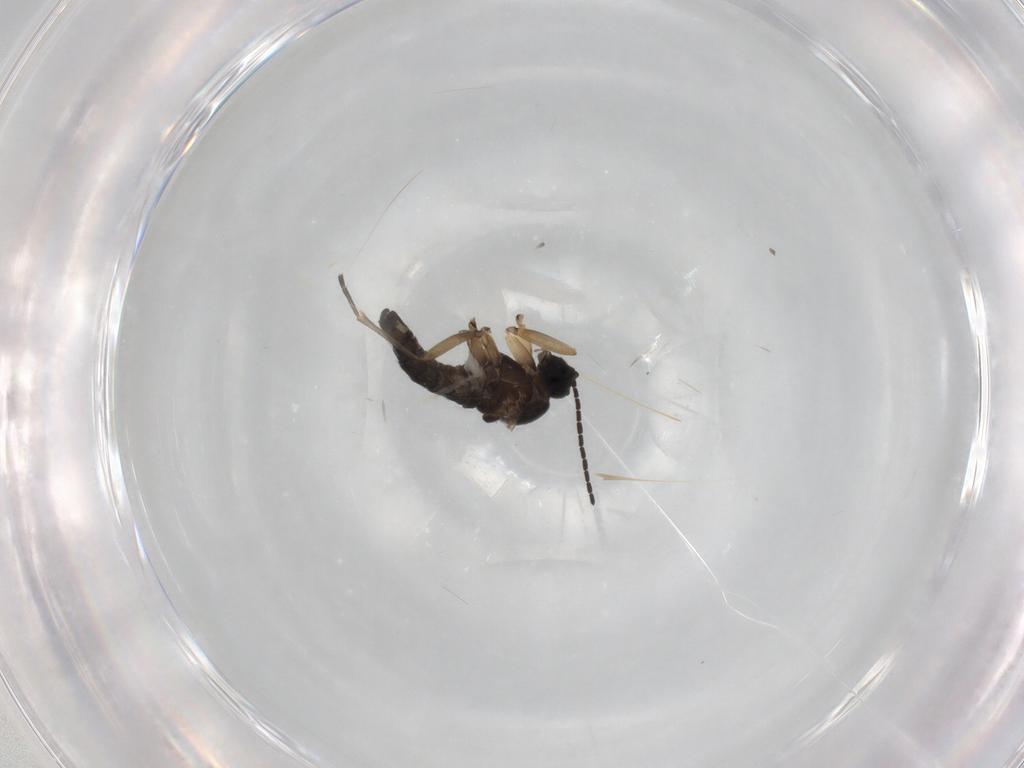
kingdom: Animalia
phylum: Arthropoda
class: Insecta
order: Diptera
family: Sciaridae
